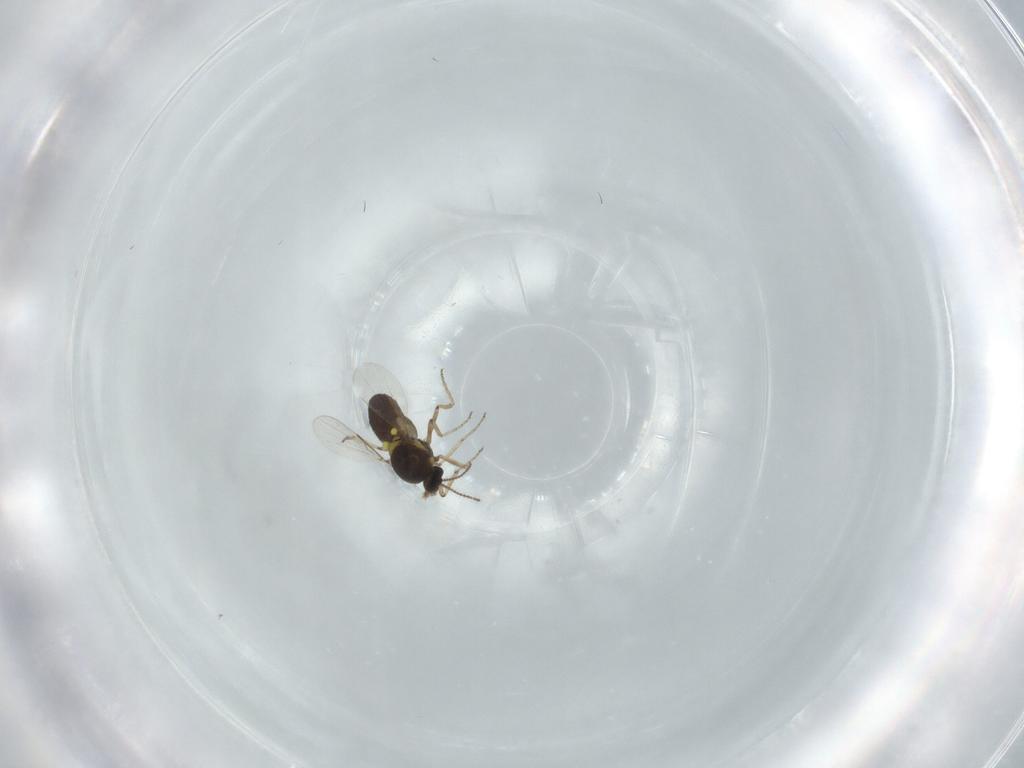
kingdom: Animalia
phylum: Arthropoda
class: Insecta
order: Diptera
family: Ceratopogonidae
